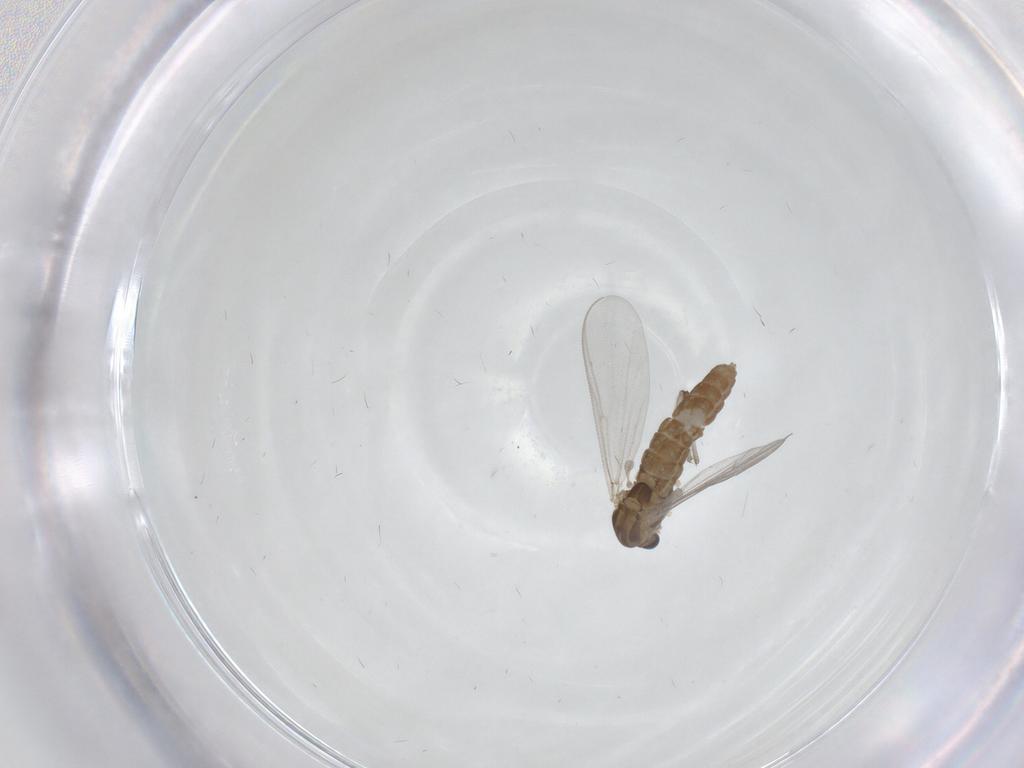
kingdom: Animalia
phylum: Arthropoda
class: Insecta
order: Diptera
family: Chironomidae
